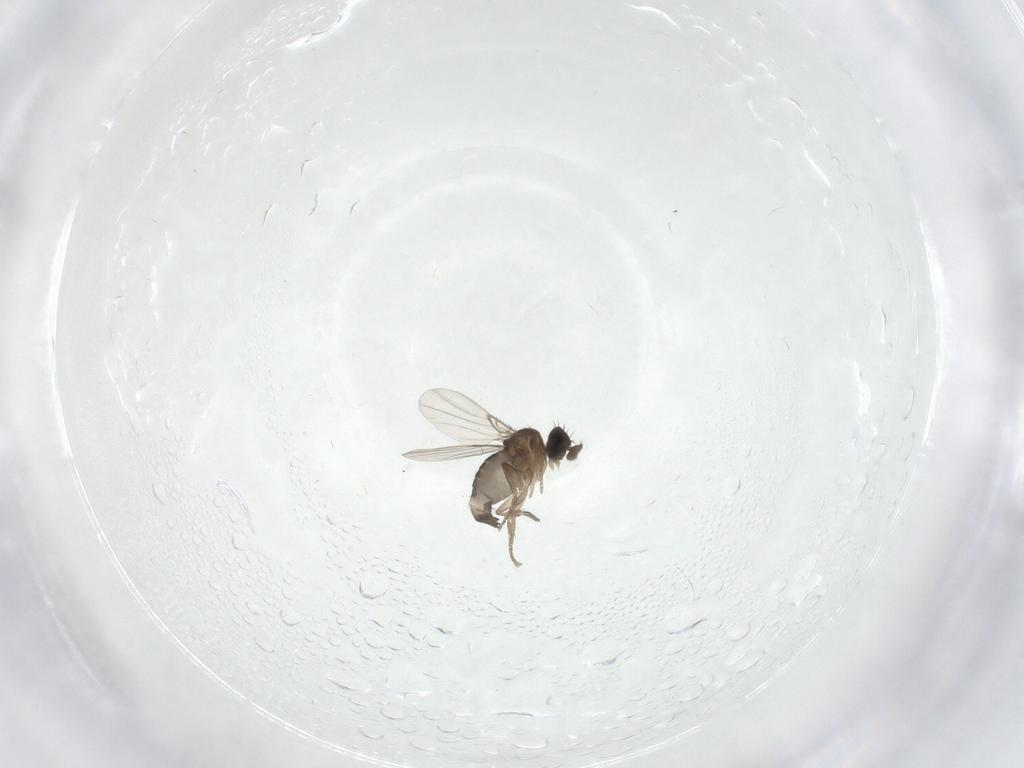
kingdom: Animalia
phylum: Arthropoda
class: Insecta
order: Diptera
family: Phoridae
